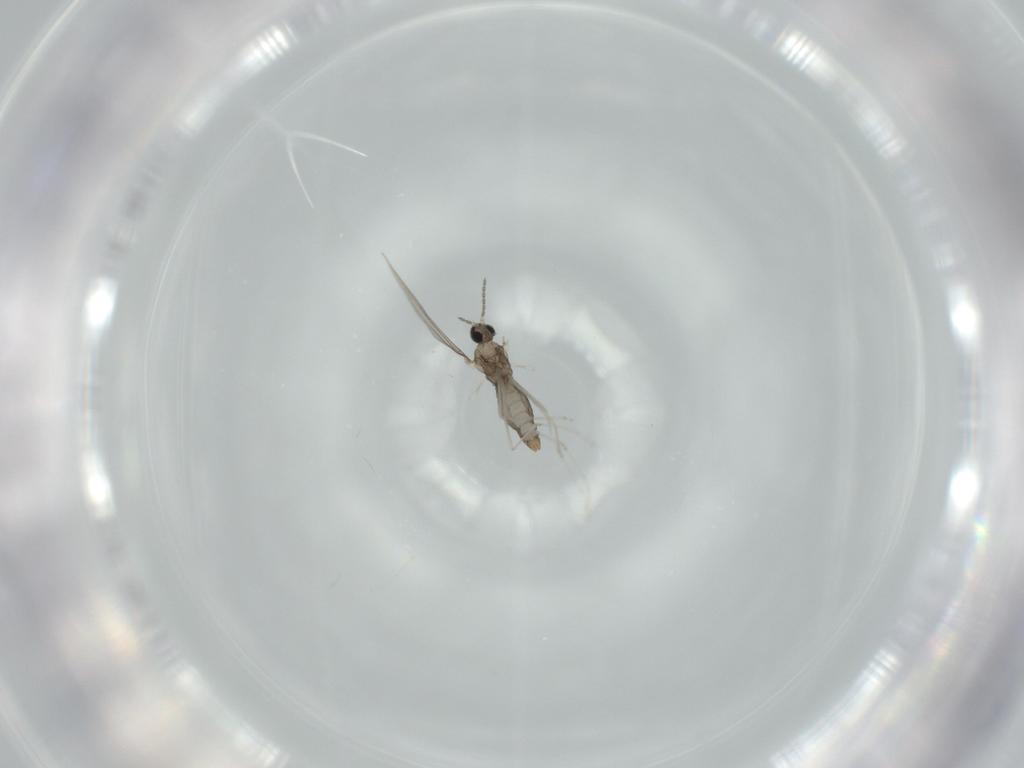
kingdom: Animalia
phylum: Arthropoda
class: Insecta
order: Diptera
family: Cecidomyiidae
